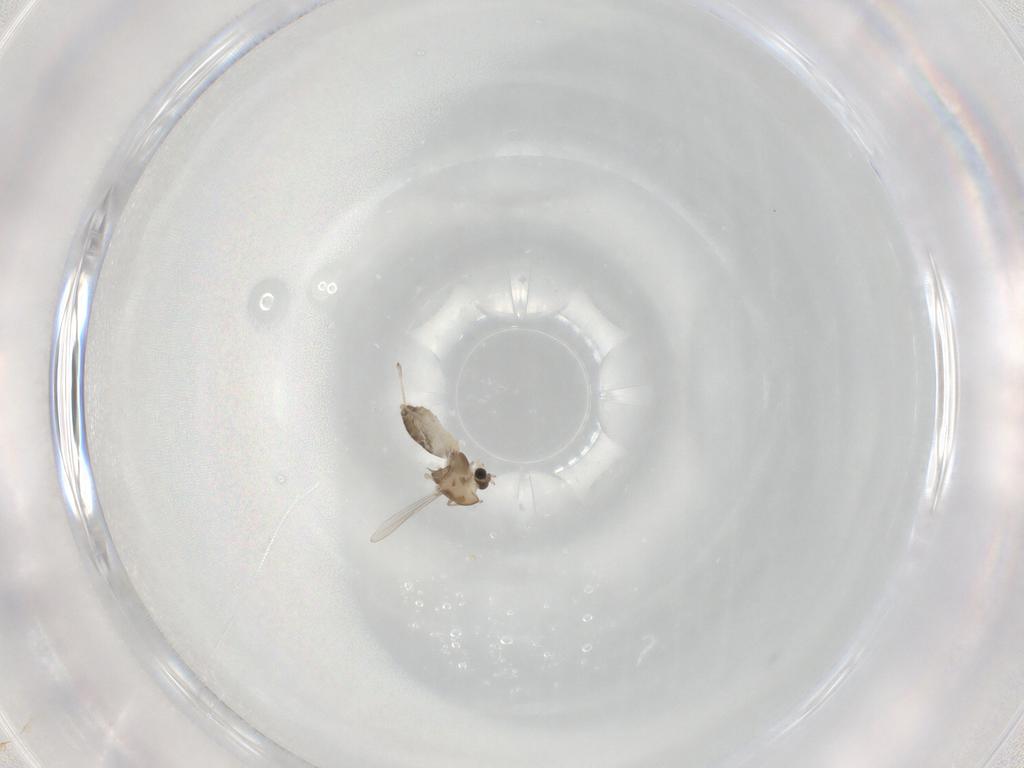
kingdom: Animalia
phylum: Arthropoda
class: Insecta
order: Diptera
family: Chironomidae
